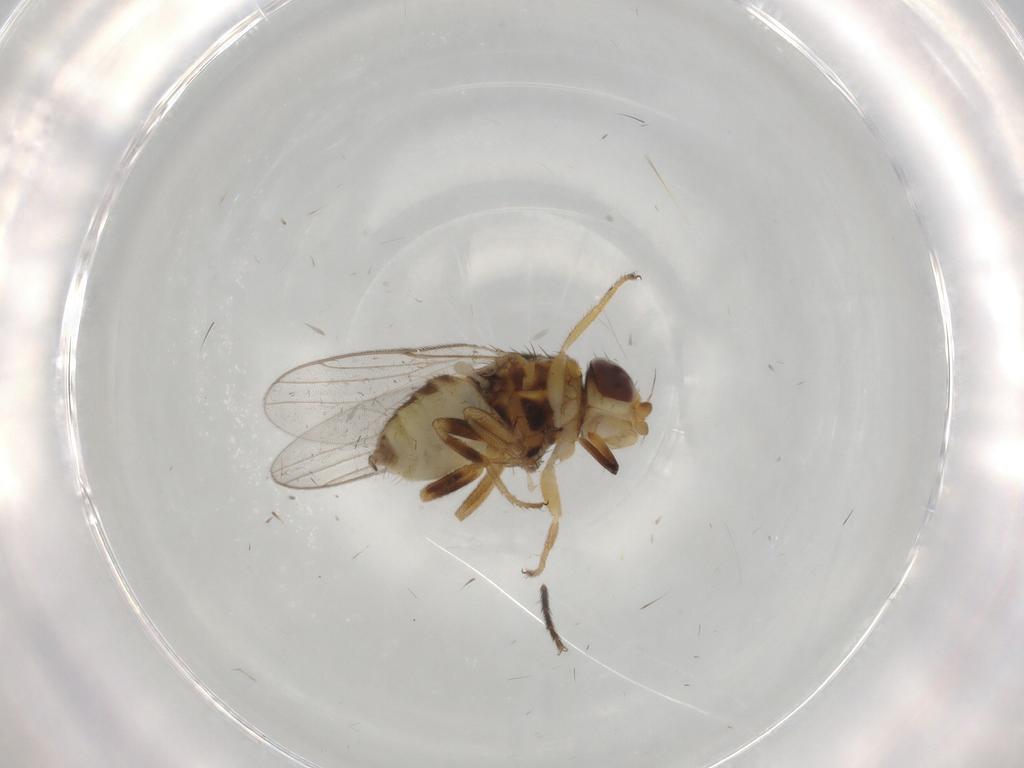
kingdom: Animalia
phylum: Arthropoda
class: Insecta
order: Diptera
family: Chloropidae
